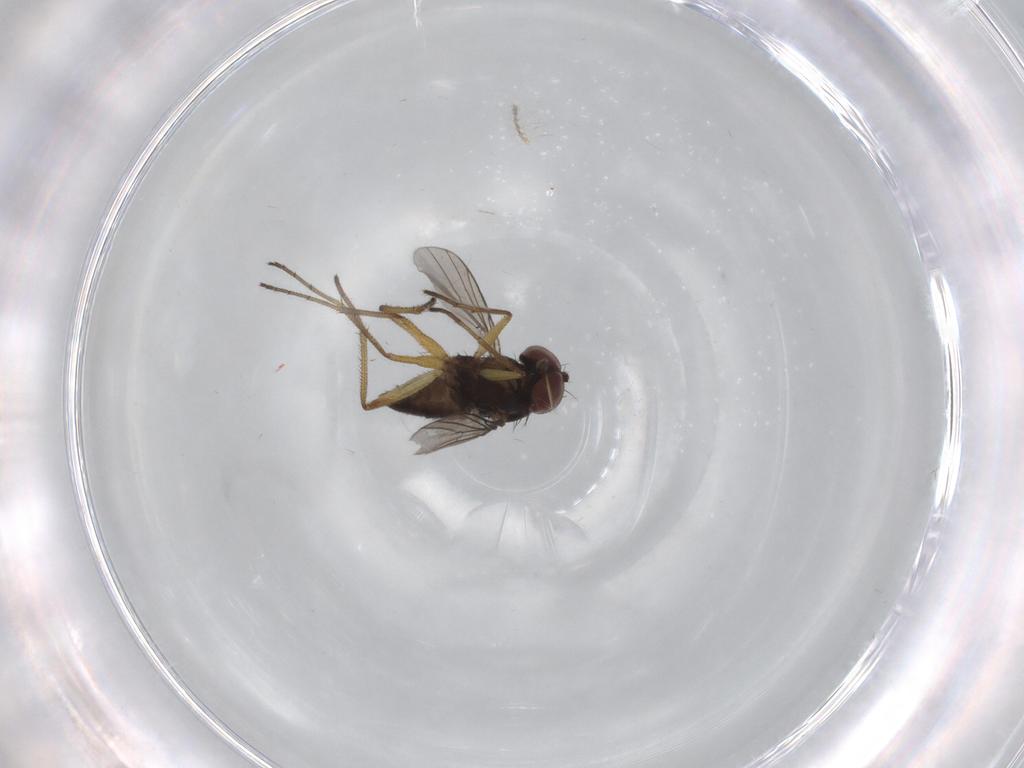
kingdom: Animalia
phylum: Arthropoda
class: Insecta
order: Diptera
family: Dolichopodidae
